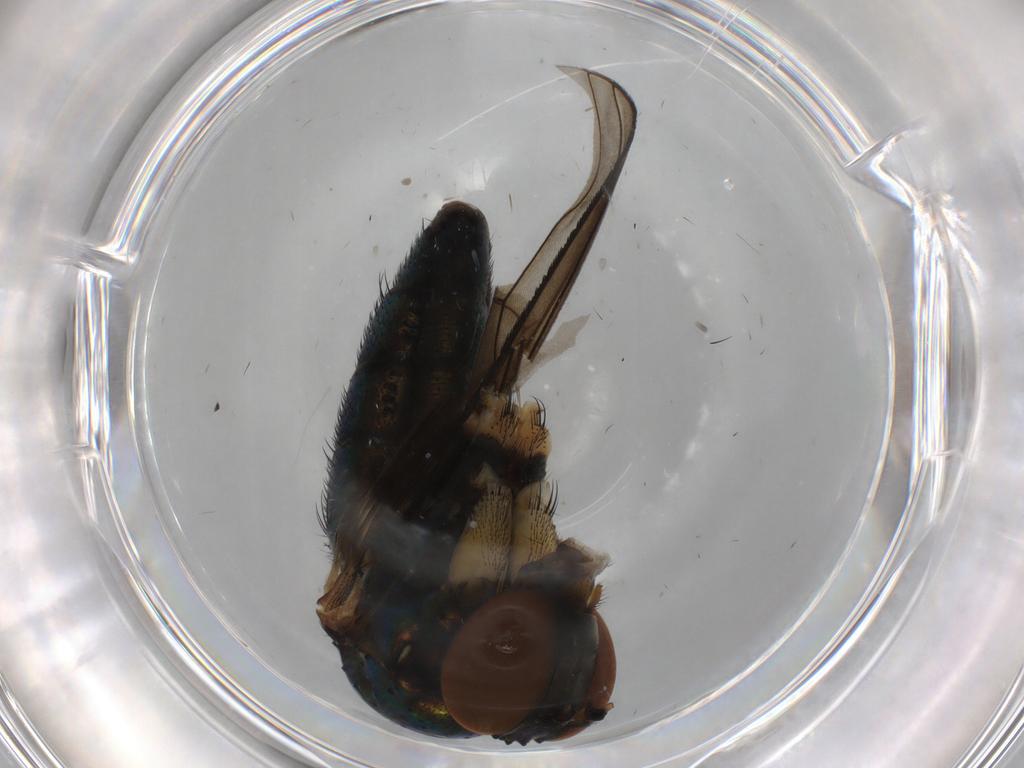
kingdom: Animalia
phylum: Arthropoda
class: Insecta
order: Diptera
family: Dolichopodidae
